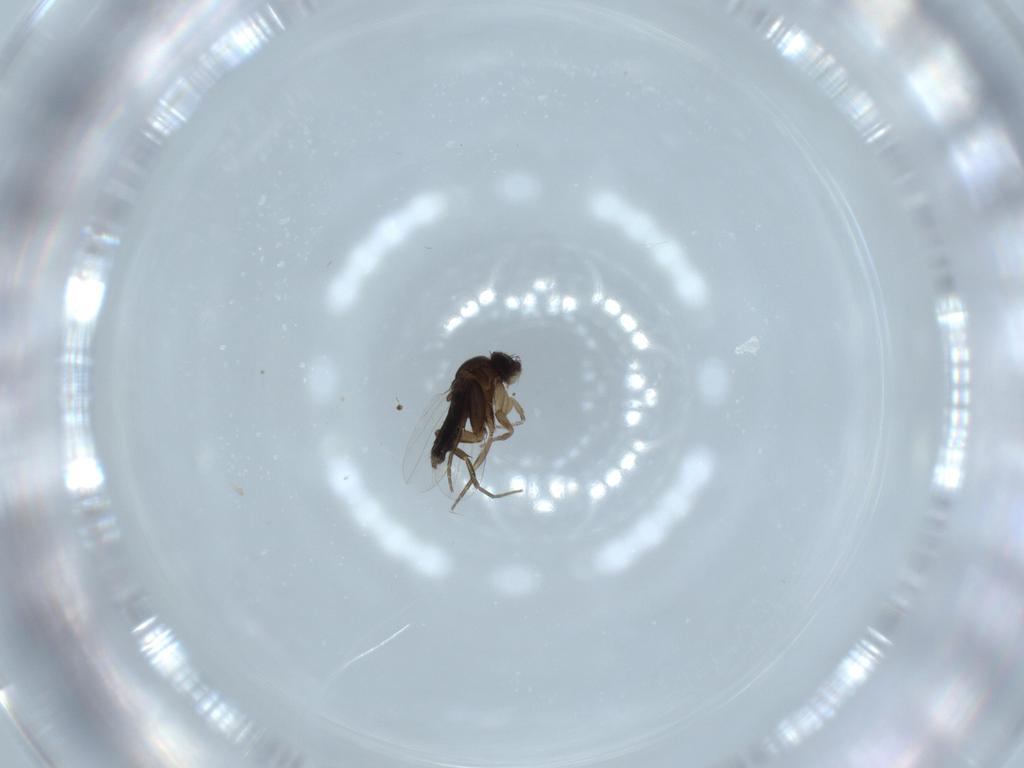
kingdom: Animalia
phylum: Arthropoda
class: Insecta
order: Diptera
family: Phoridae
